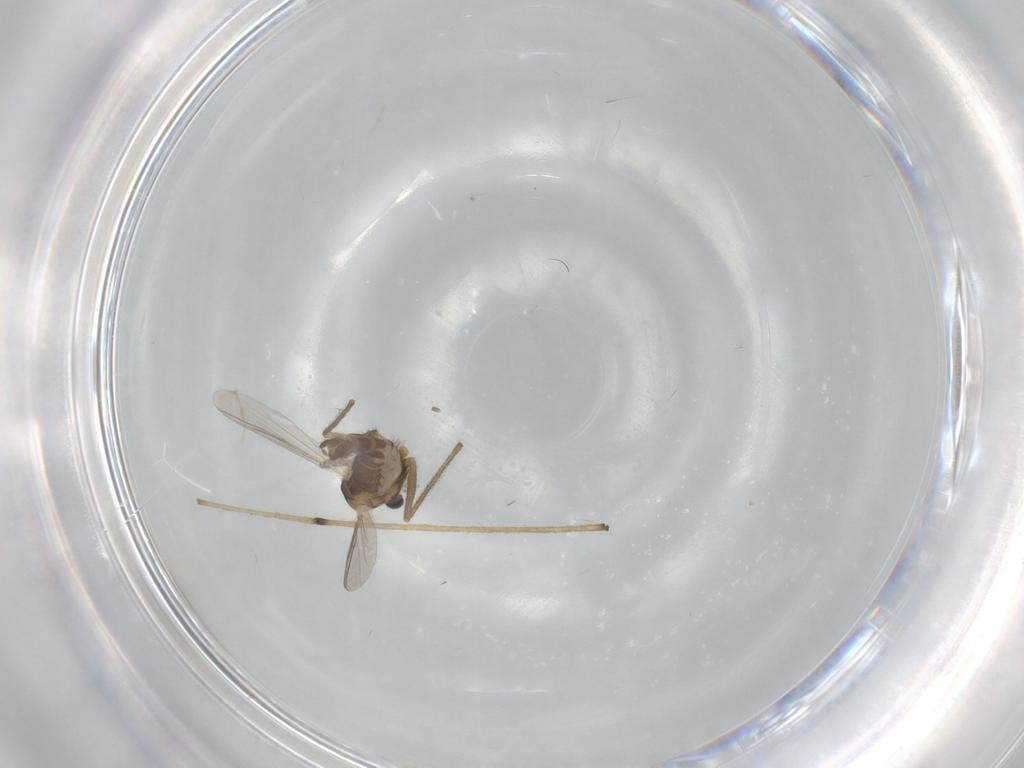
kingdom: Animalia
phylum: Arthropoda
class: Insecta
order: Diptera
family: Chironomidae
